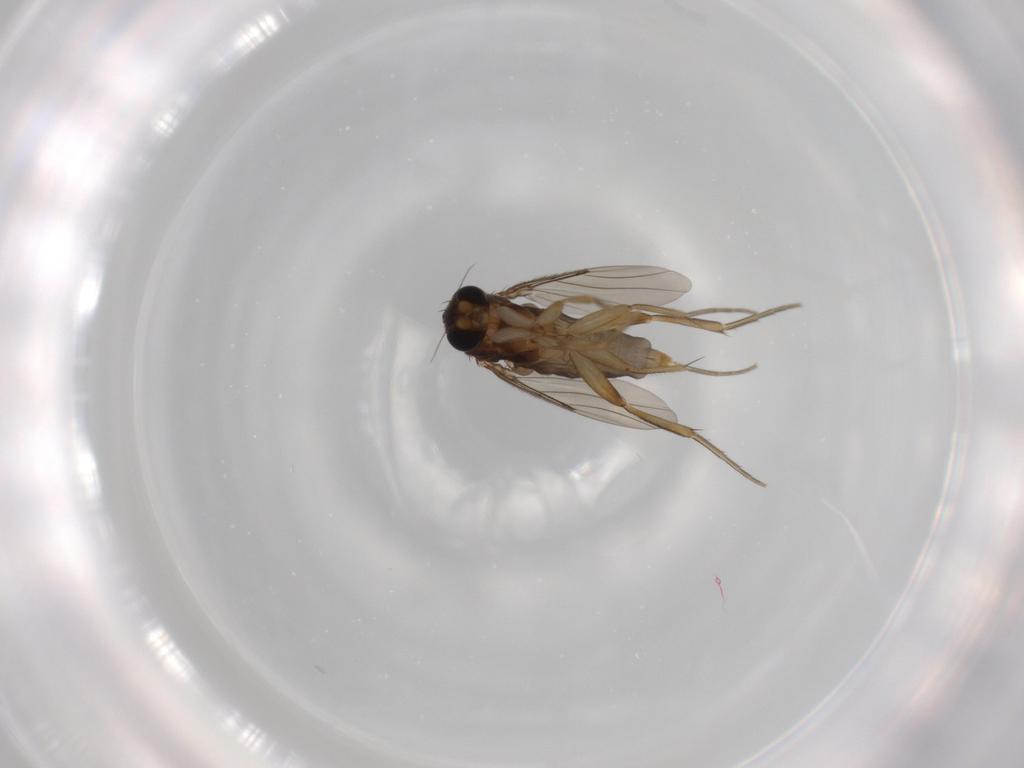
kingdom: Animalia
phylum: Arthropoda
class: Insecta
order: Diptera
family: Phoridae
